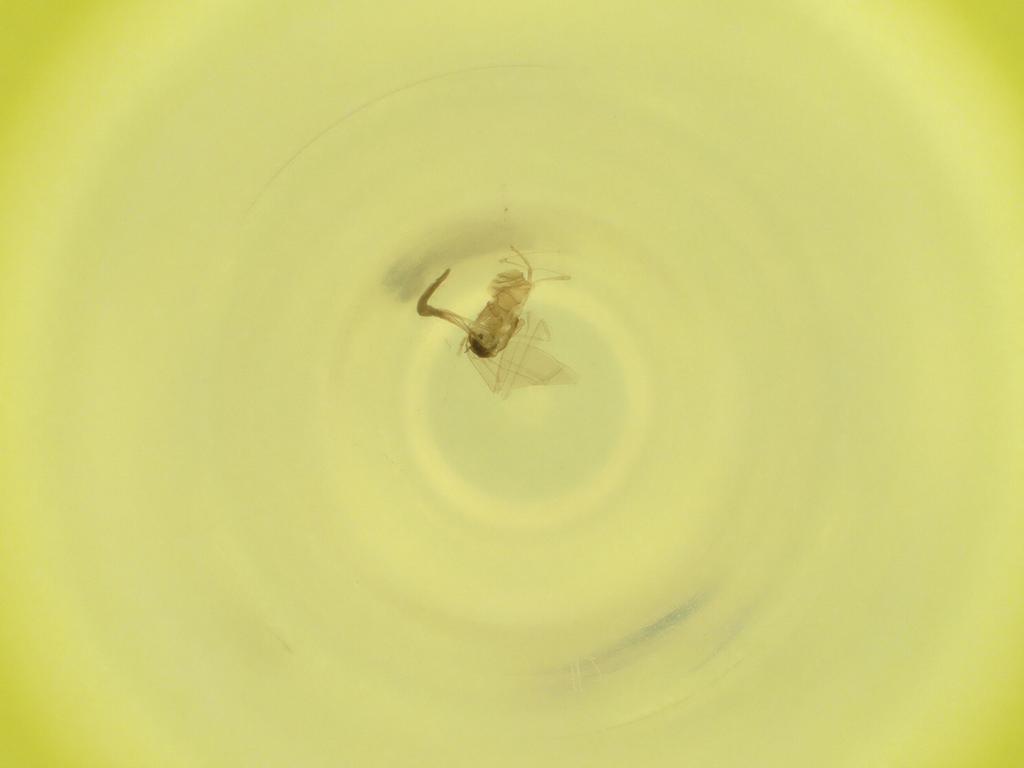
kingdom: Animalia
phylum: Arthropoda
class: Insecta
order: Diptera
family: Cecidomyiidae
